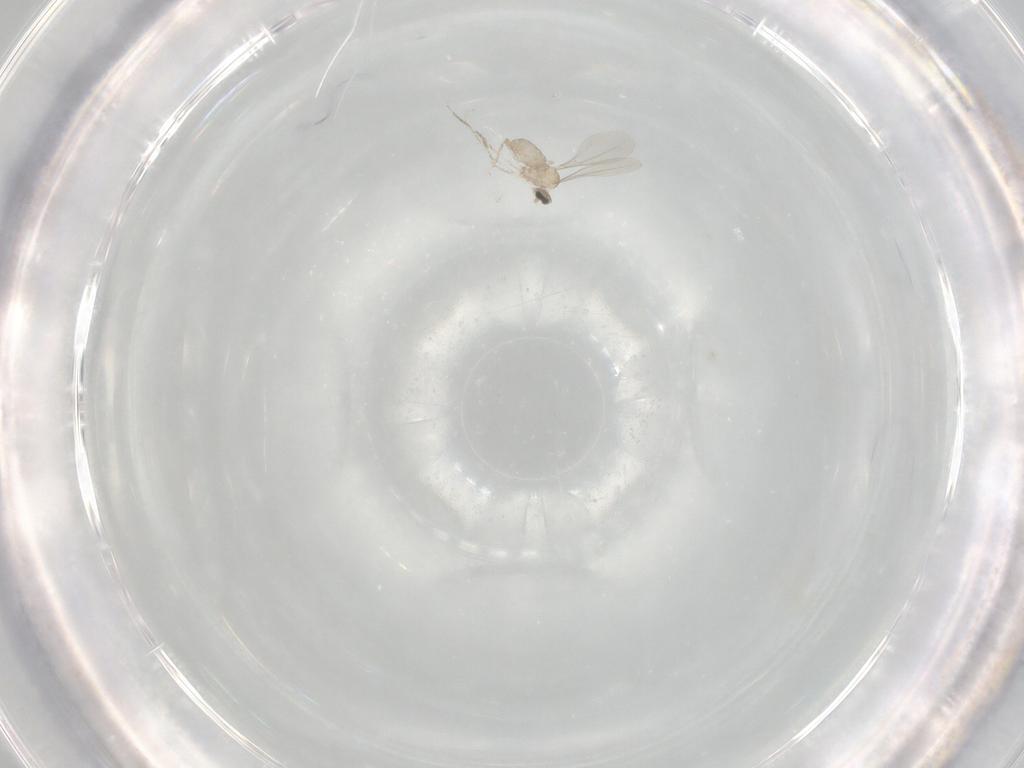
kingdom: Animalia
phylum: Arthropoda
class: Insecta
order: Diptera
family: Cecidomyiidae
